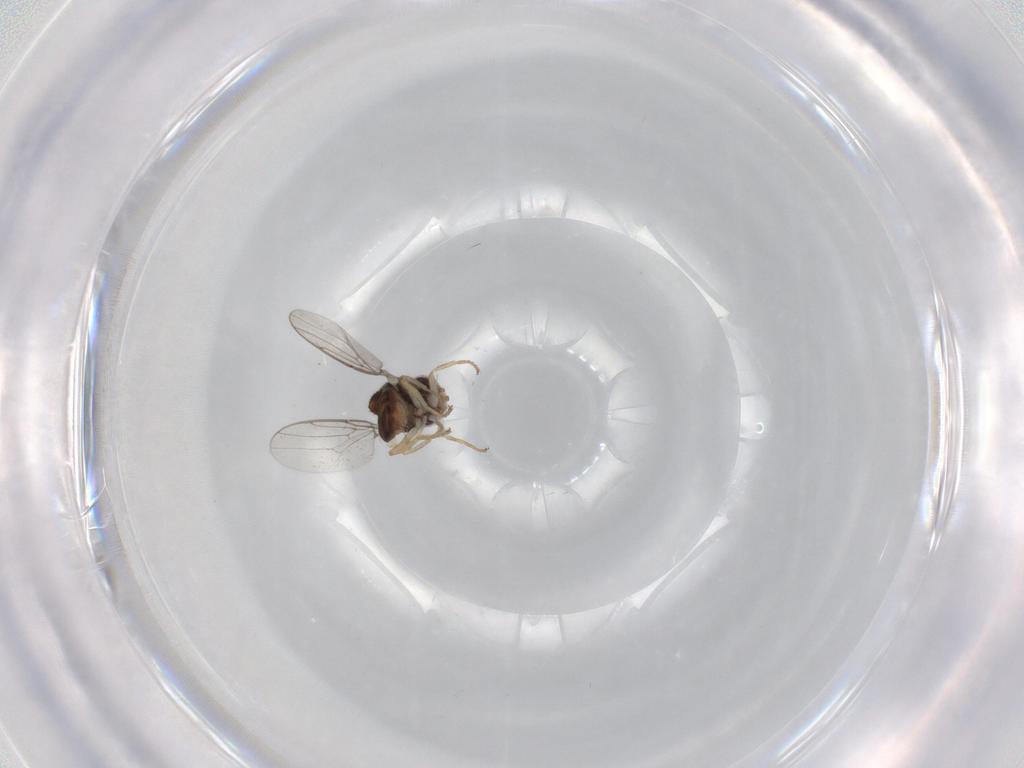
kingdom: Animalia
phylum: Arthropoda
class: Insecta
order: Diptera
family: Chloropidae
